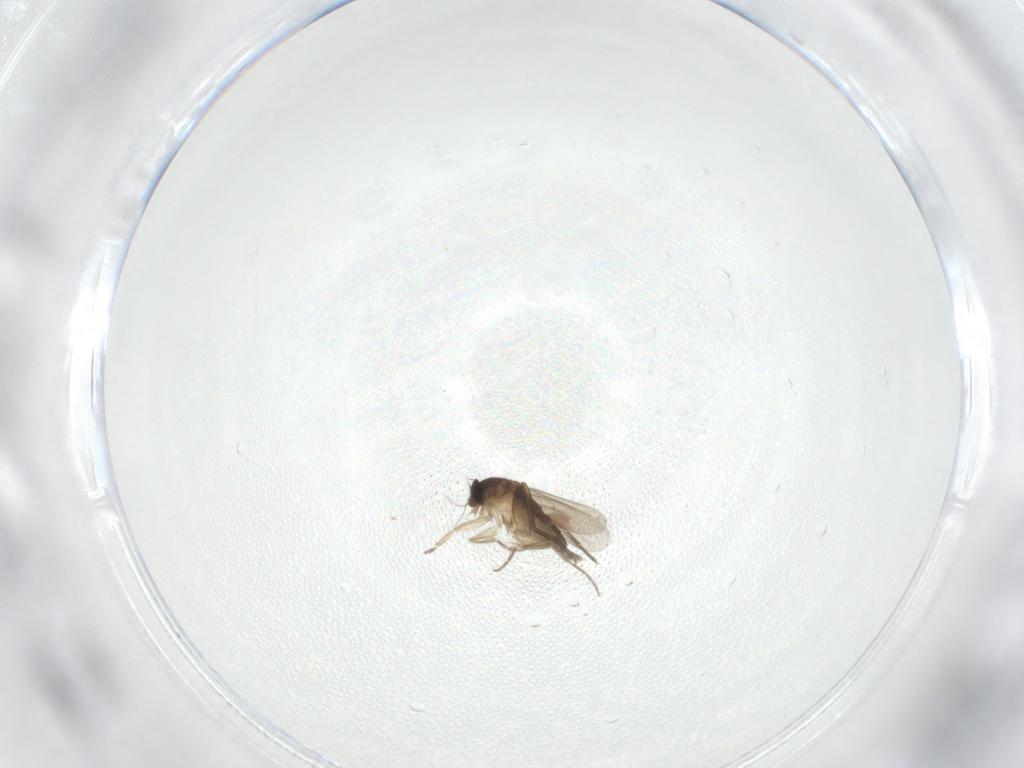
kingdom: Animalia
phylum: Arthropoda
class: Insecta
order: Diptera
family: Phoridae
